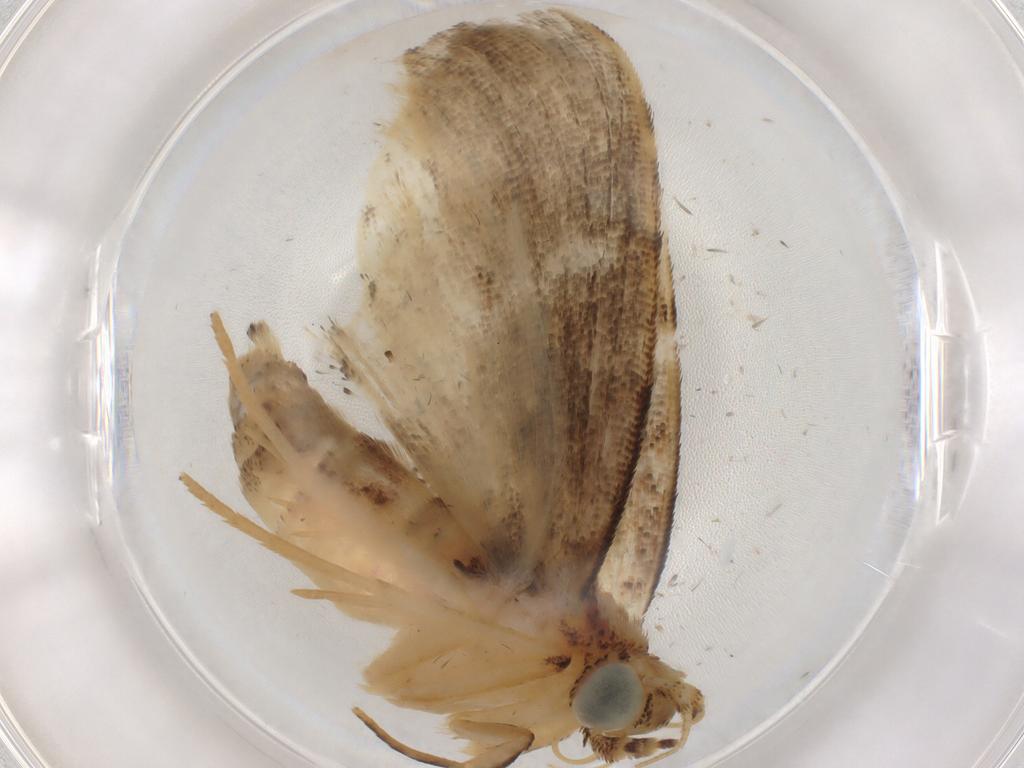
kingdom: Animalia
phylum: Arthropoda
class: Insecta
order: Lepidoptera
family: Erebidae
